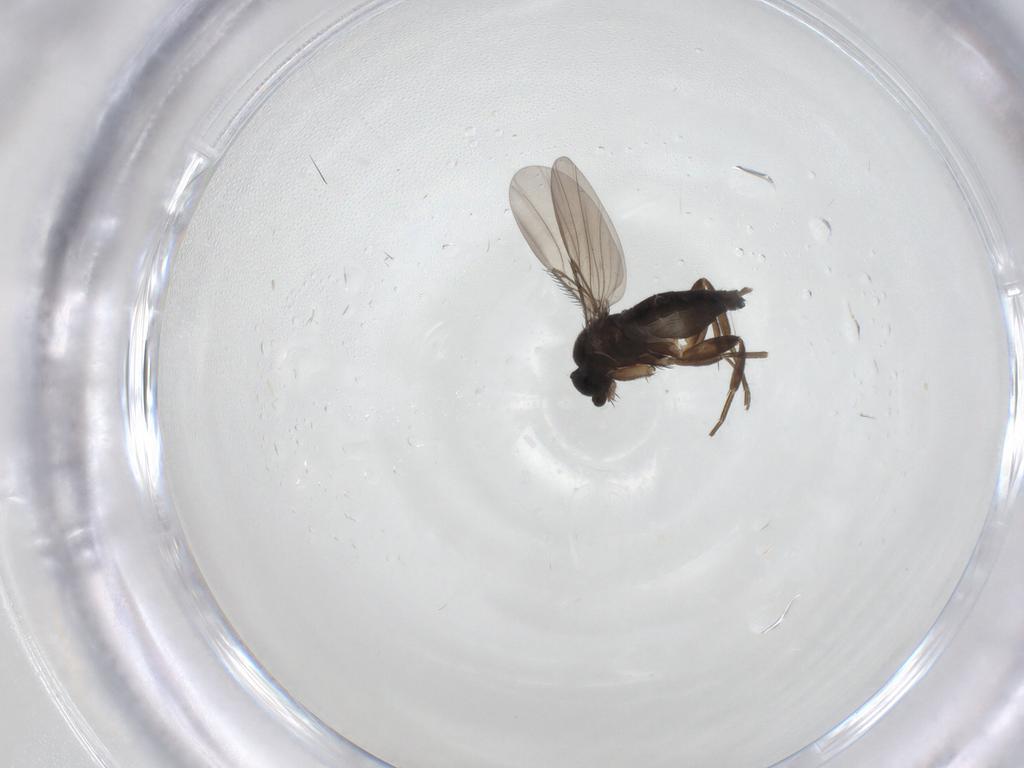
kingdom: Animalia
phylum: Arthropoda
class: Insecta
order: Diptera
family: Phoridae
